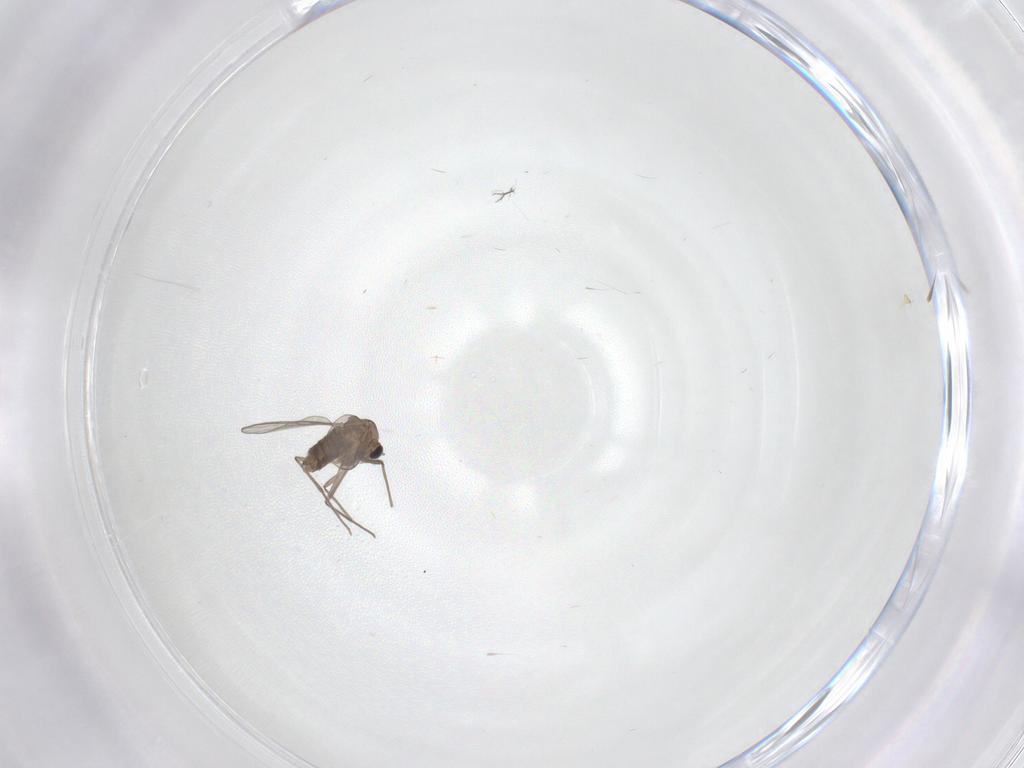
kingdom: Animalia
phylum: Arthropoda
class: Insecta
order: Diptera
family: Chironomidae
